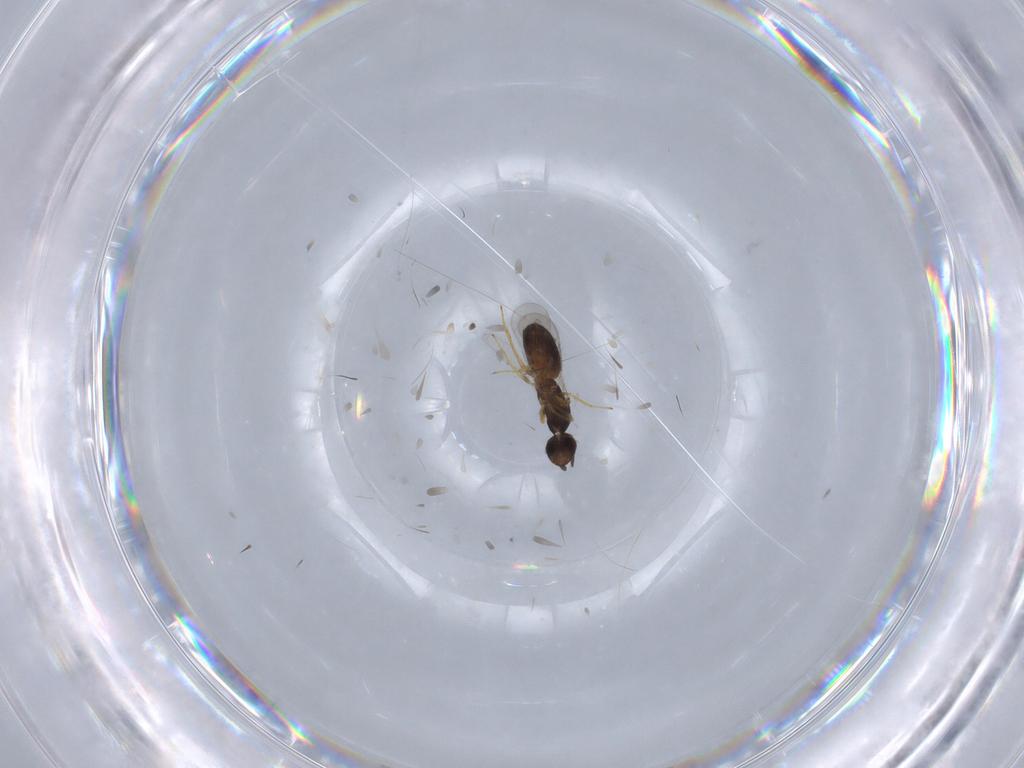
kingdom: Animalia
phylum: Arthropoda
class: Insecta
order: Hymenoptera
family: Eulophidae
